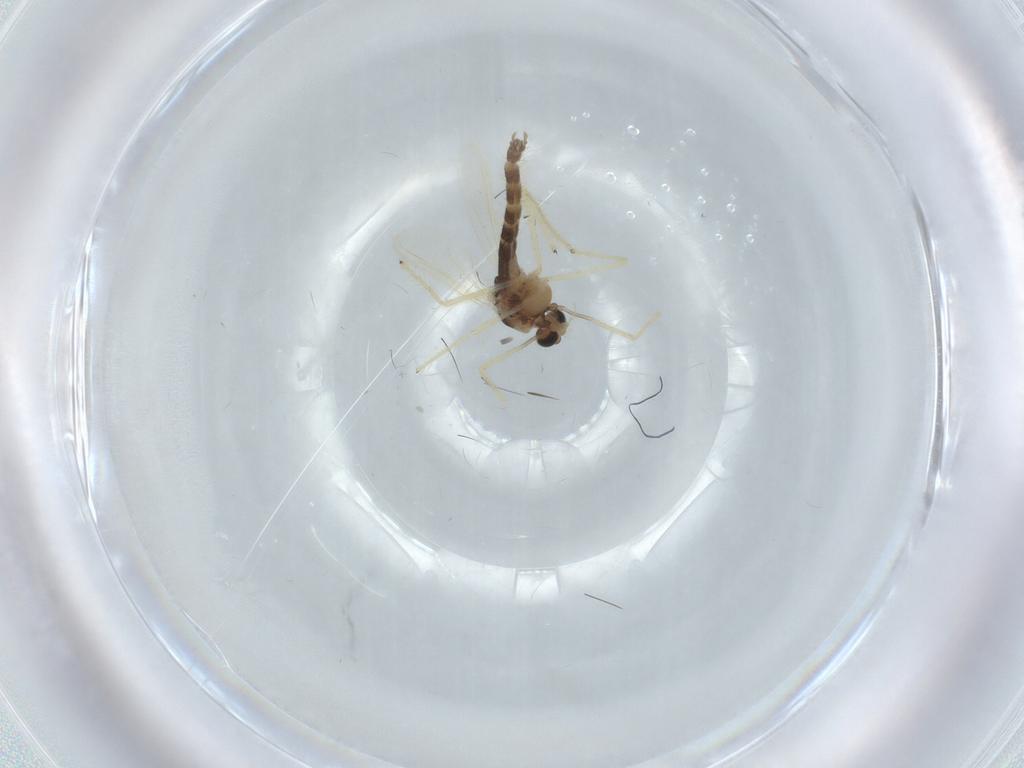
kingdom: Animalia
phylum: Arthropoda
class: Insecta
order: Diptera
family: Chironomidae
